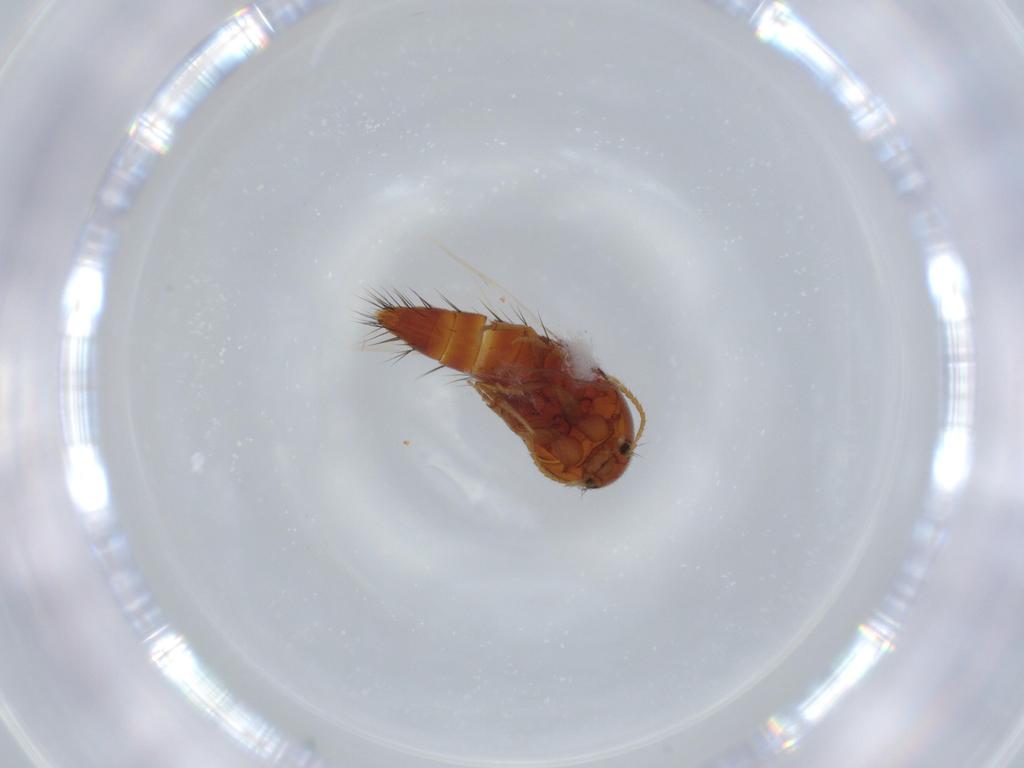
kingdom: Animalia
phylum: Arthropoda
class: Insecta
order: Coleoptera
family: Staphylinidae
